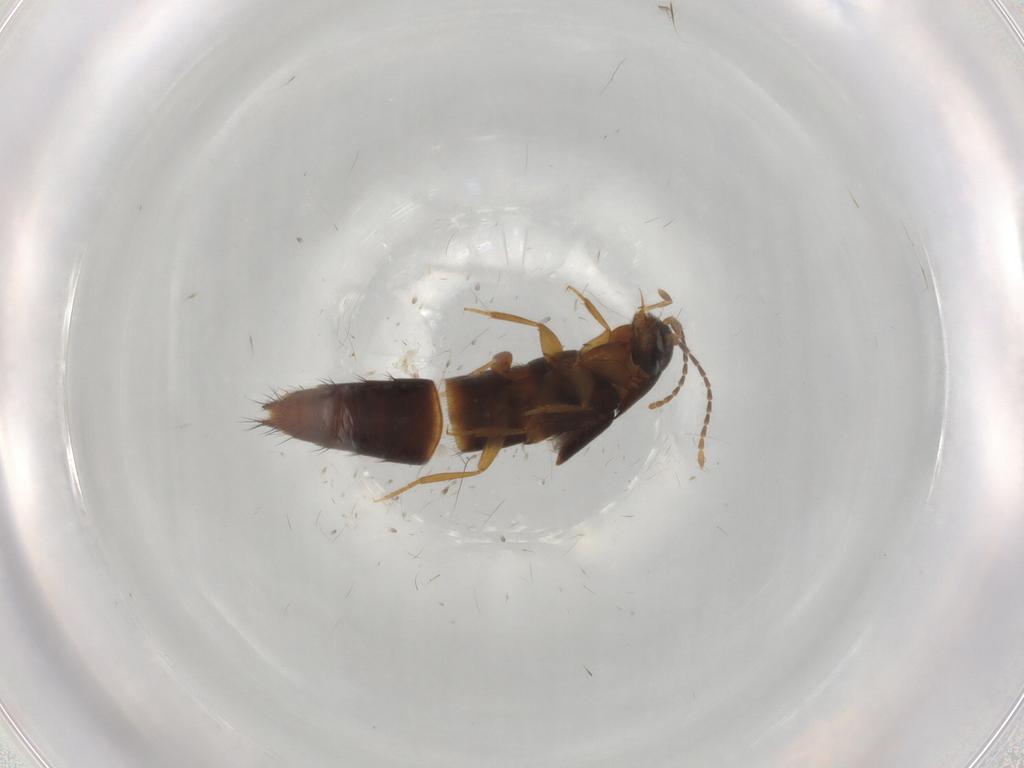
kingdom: Animalia
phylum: Arthropoda
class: Insecta
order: Coleoptera
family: Staphylinidae
